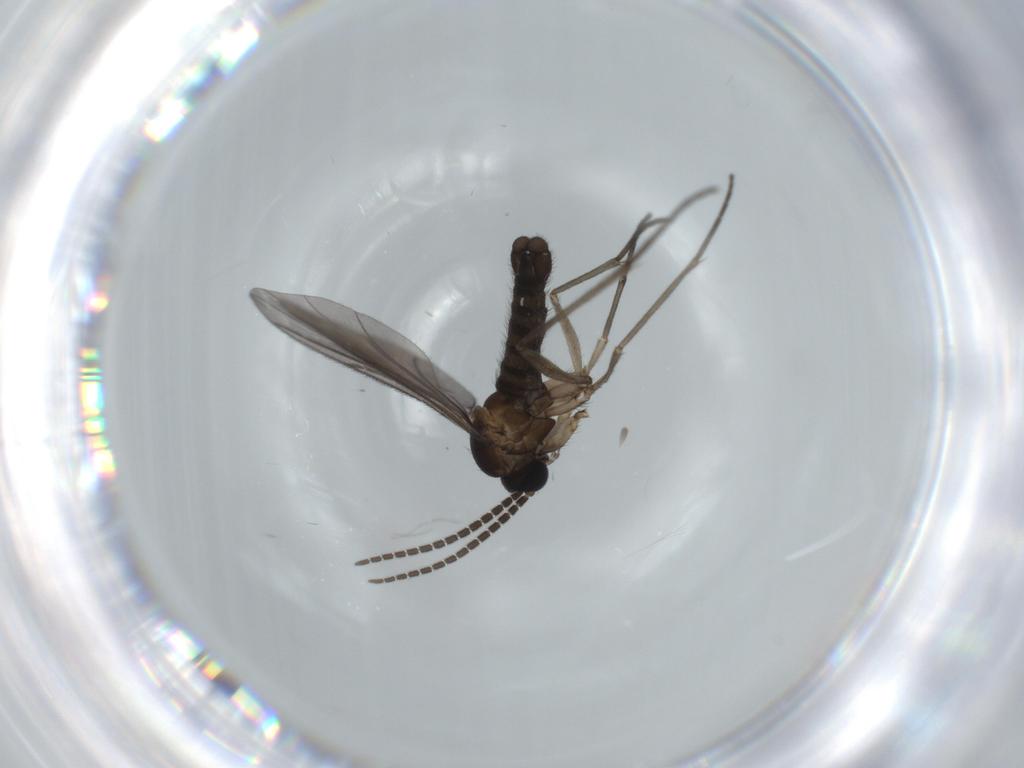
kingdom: Animalia
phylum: Arthropoda
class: Insecta
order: Diptera
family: Sciaridae
